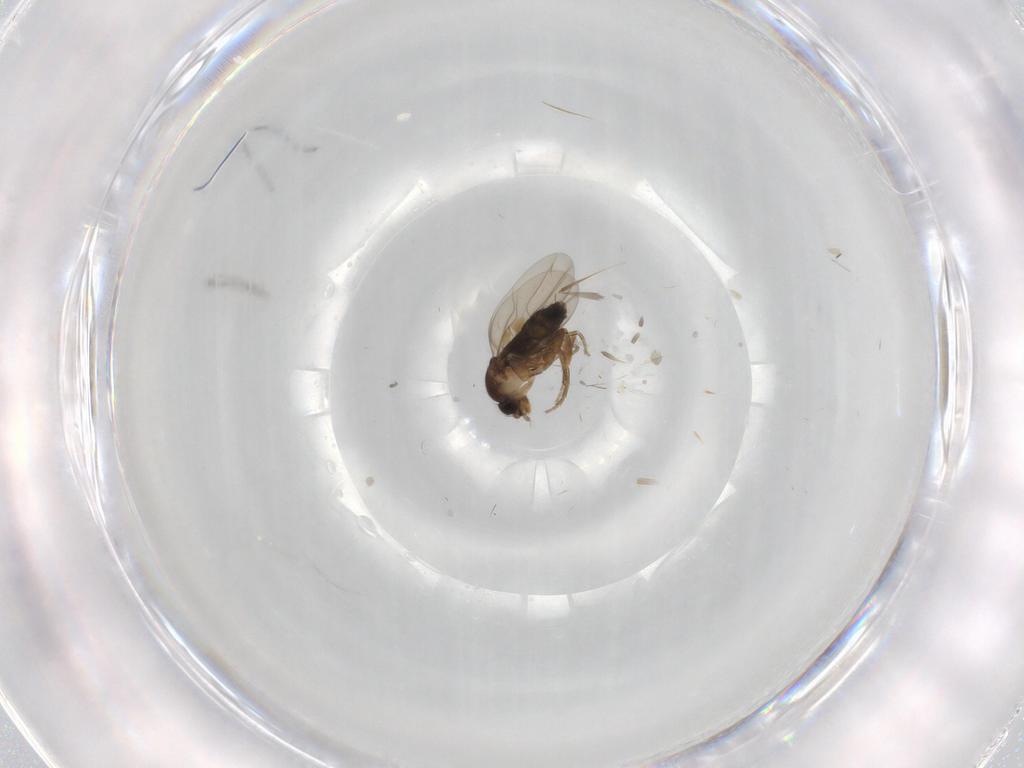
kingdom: Animalia
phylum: Arthropoda
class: Insecta
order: Diptera
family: Phoridae
